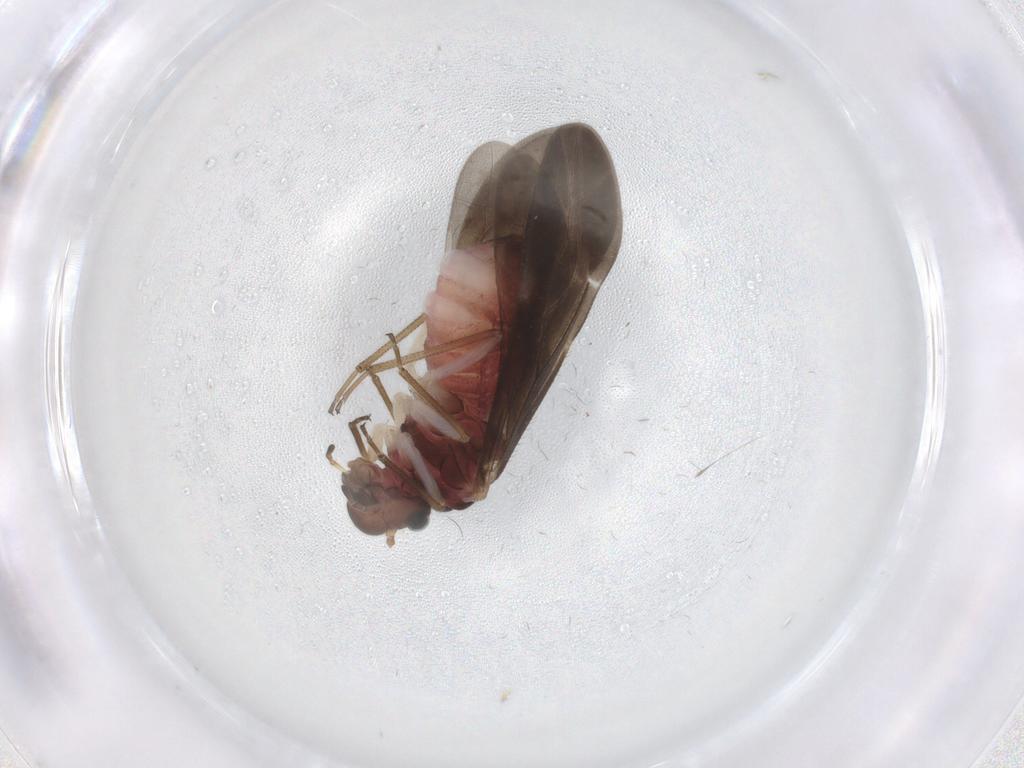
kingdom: Animalia
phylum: Arthropoda
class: Insecta
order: Psocodea
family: Caeciliusidae
